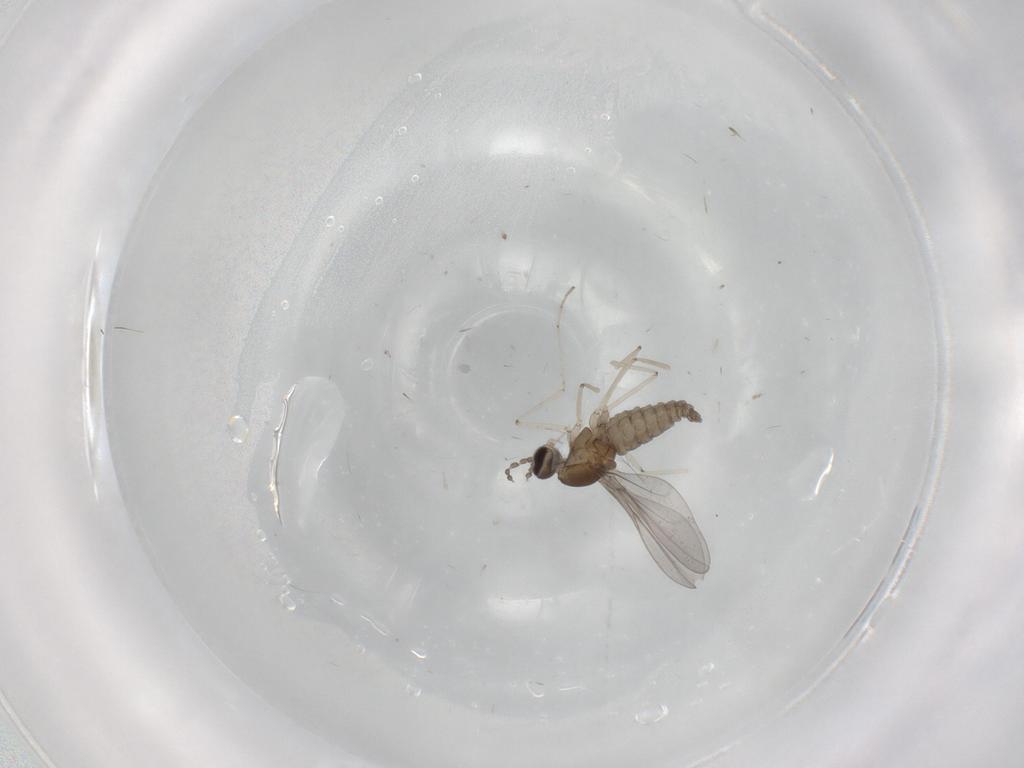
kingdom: Animalia
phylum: Arthropoda
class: Insecta
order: Diptera
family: Cecidomyiidae
